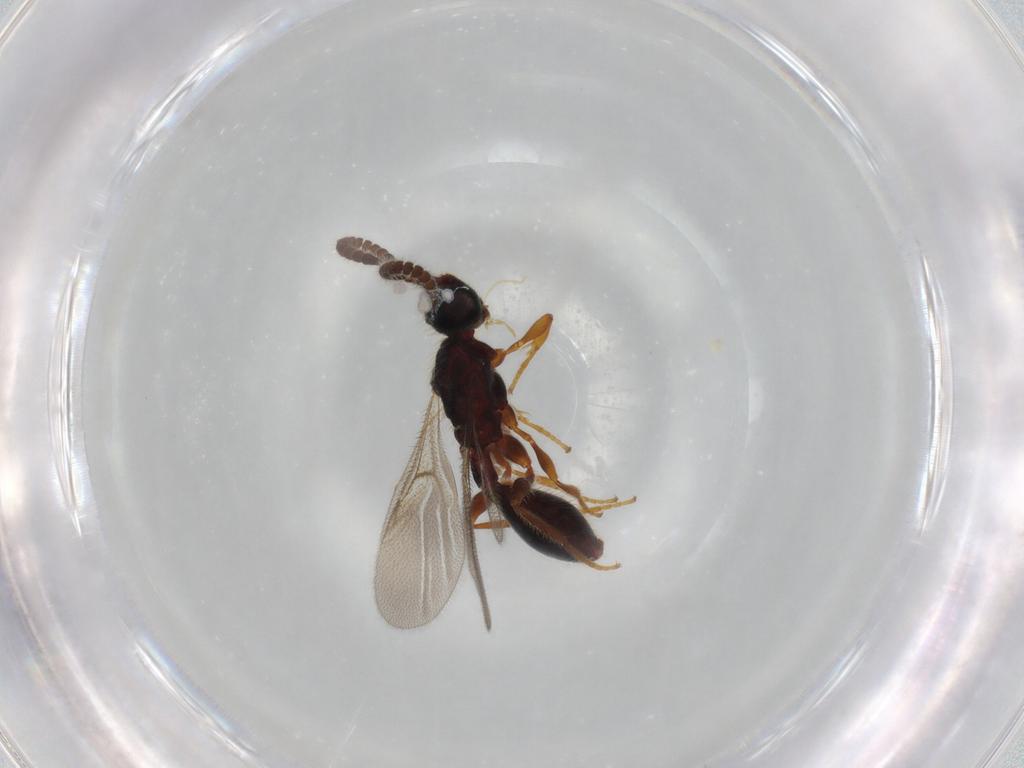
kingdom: Animalia
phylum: Arthropoda
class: Insecta
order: Hymenoptera
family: Diapriidae
